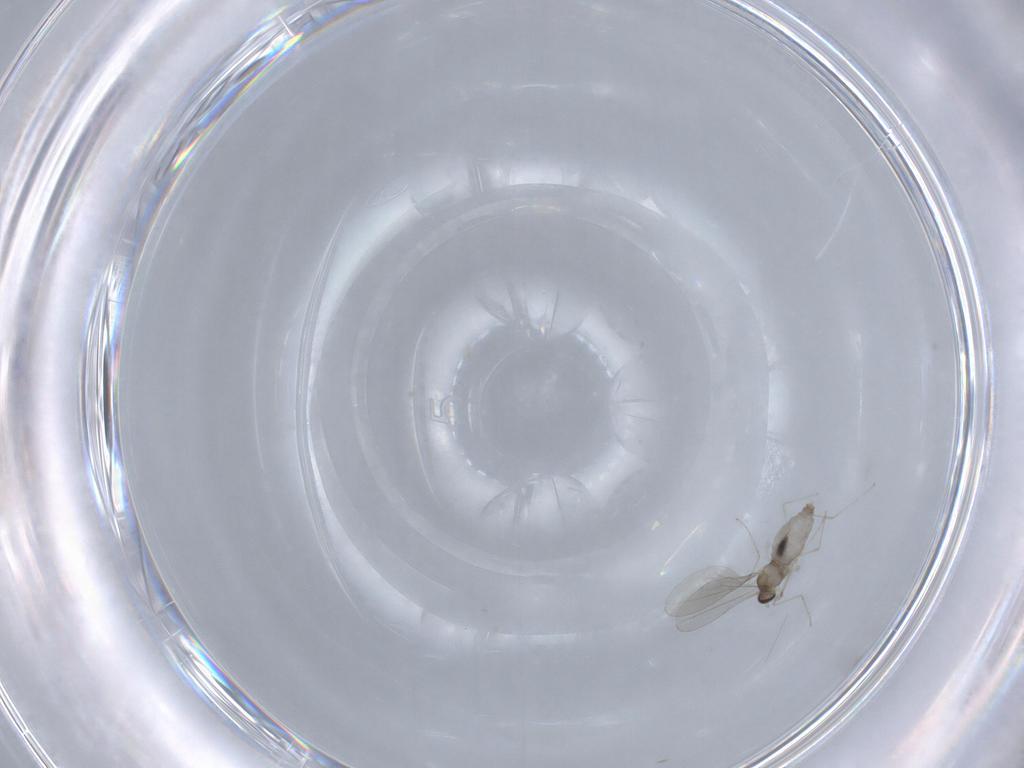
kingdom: Animalia
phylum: Arthropoda
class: Insecta
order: Diptera
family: Cecidomyiidae
